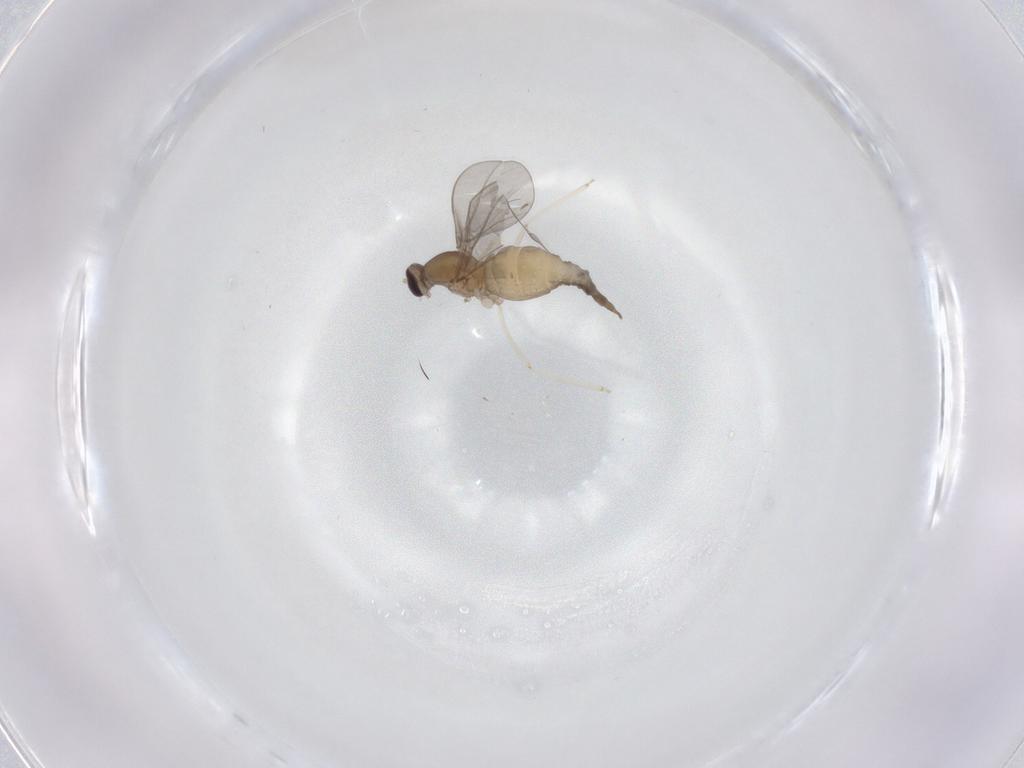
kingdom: Animalia
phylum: Arthropoda
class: Insecta
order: Diptera
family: Cecidomyiidae
